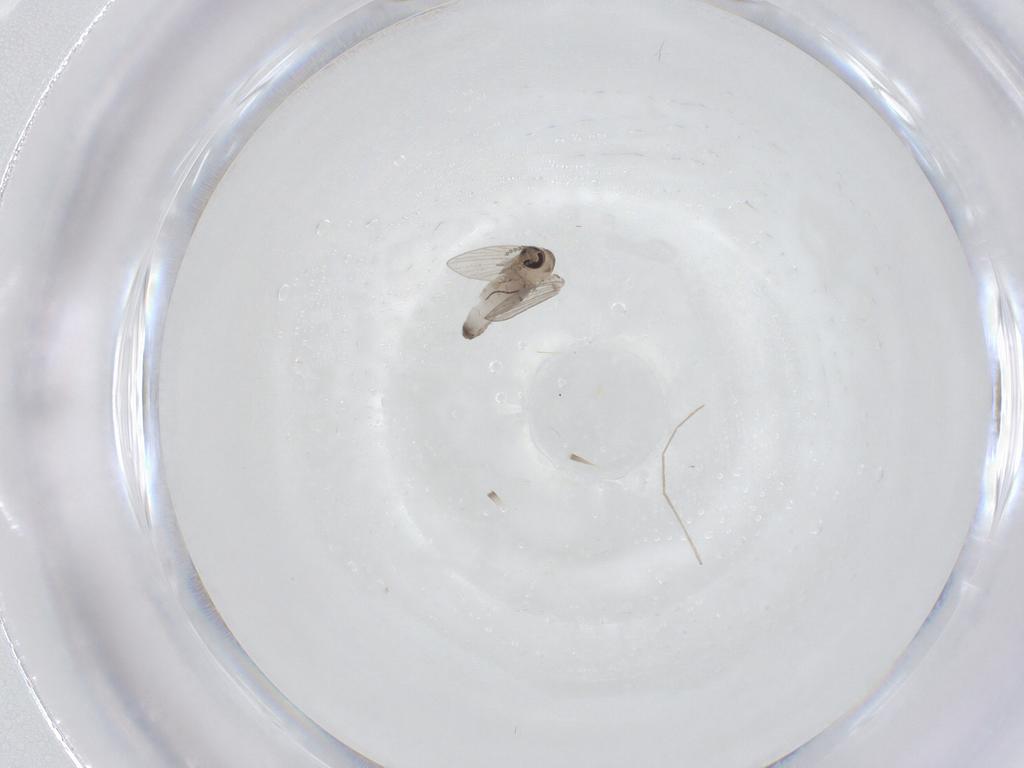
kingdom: Animalia
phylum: Arthropoda
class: Insecta
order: Diptera
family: Psychodidae
